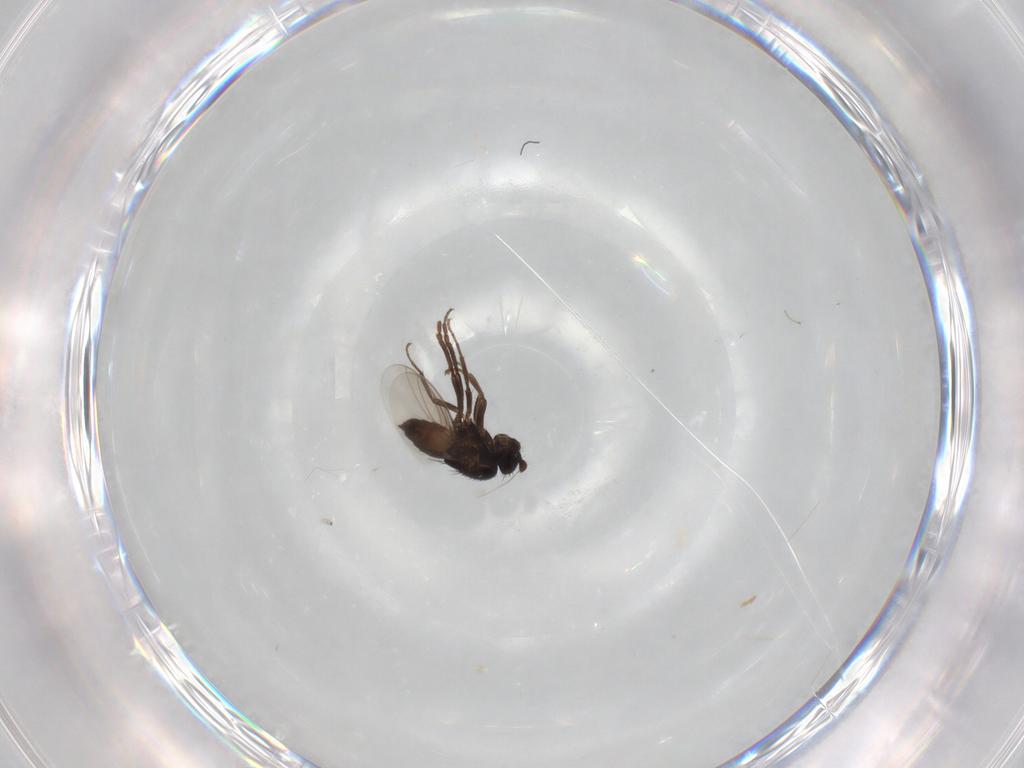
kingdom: Animalia
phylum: Arthropoda
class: Insecta
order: Diptera
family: Sphaeroceridae
